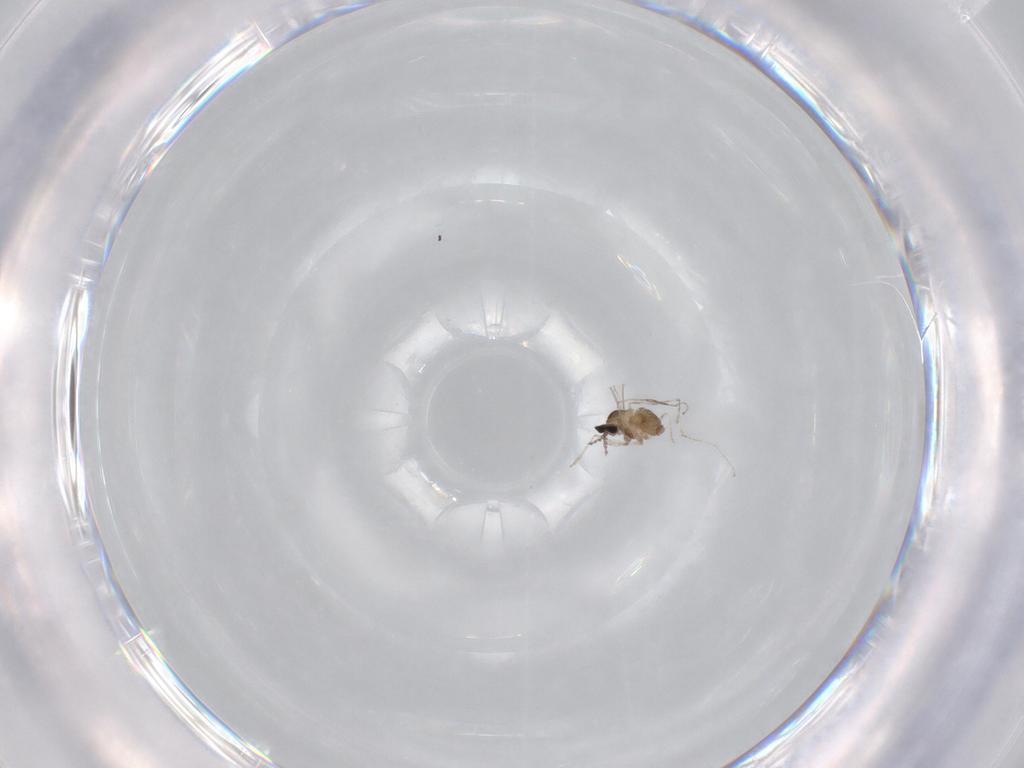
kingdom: Animalia
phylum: Arthropoda
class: Insecta
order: Diptera
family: Cecidomyiidae
